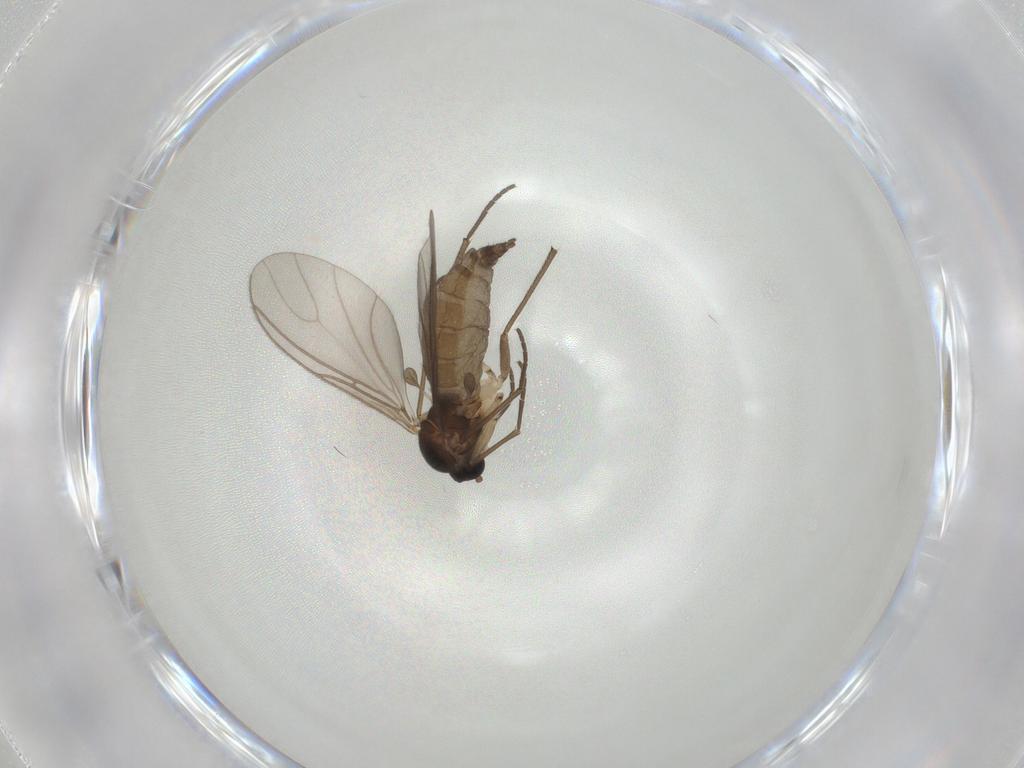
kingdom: Animalia
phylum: Arthropoda
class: Insecta
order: Diptera
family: Sciaridae
